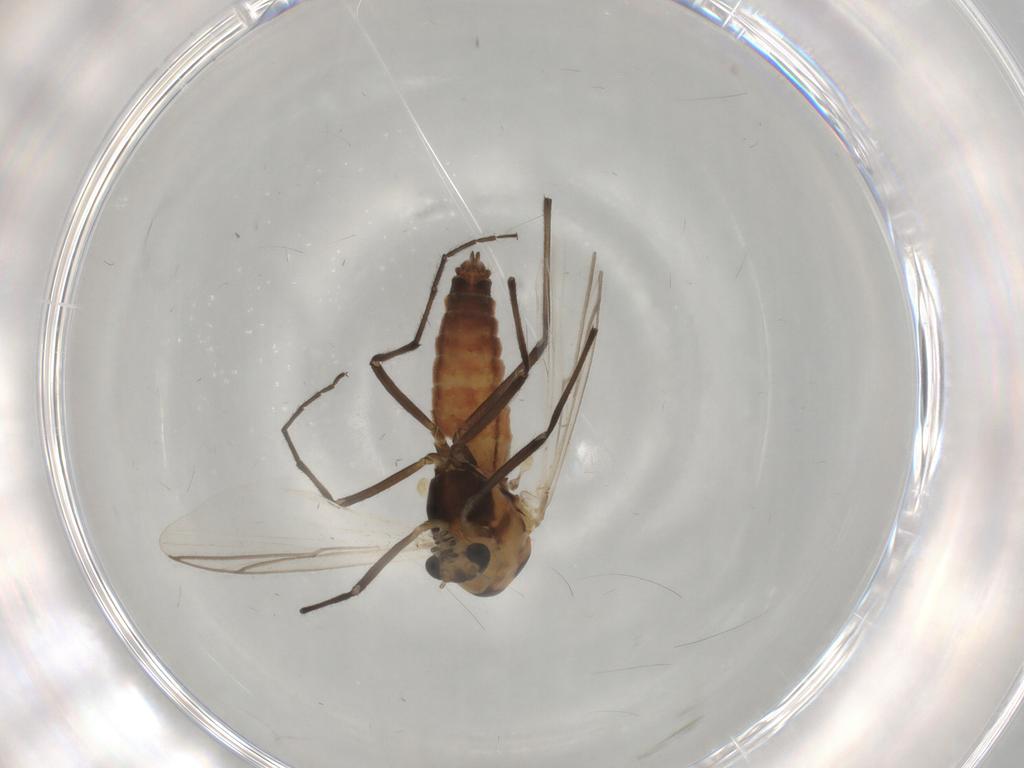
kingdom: Animalia
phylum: Arthropoda
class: Insecta
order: Diptera
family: Chironomidae
